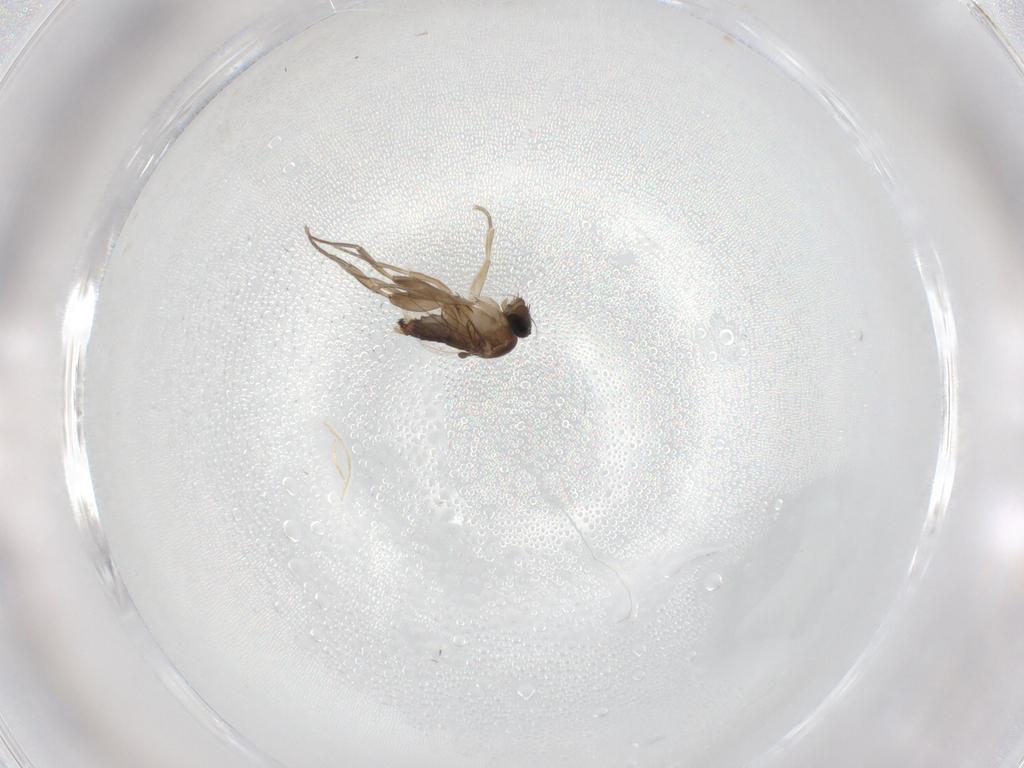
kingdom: Animalia
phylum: Arthropoda
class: Insecta
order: Diptera
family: Phoridae
